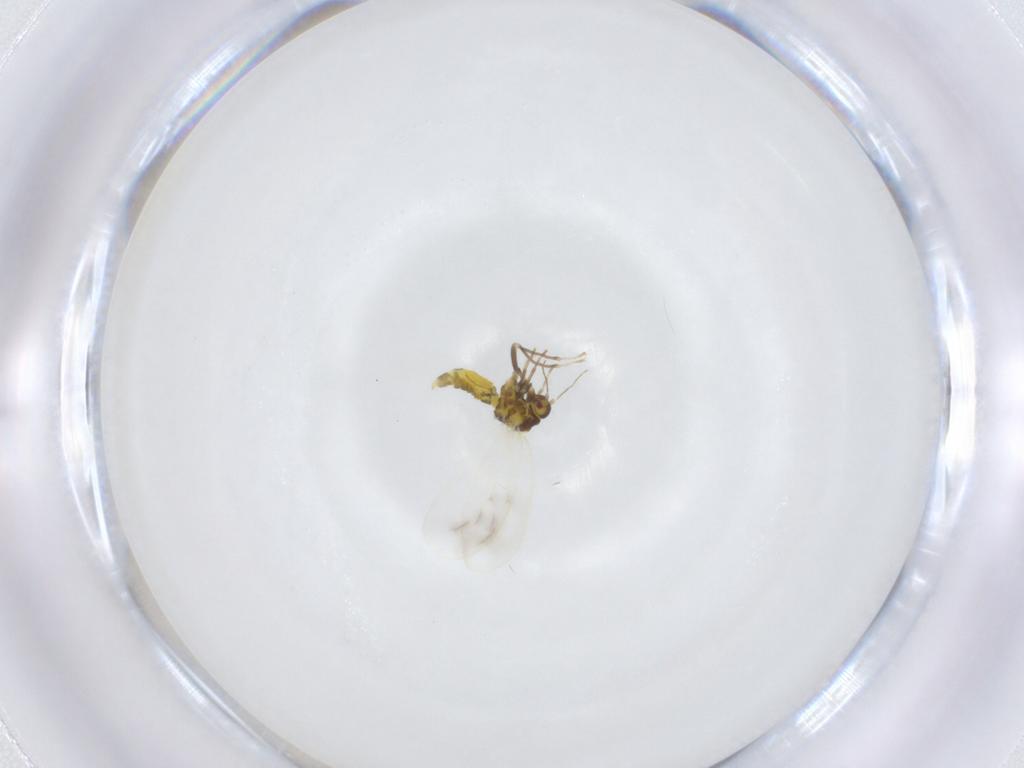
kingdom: Animalia
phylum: Arthropoda
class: Insecta
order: Hemiptera
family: Aleyrodidae
